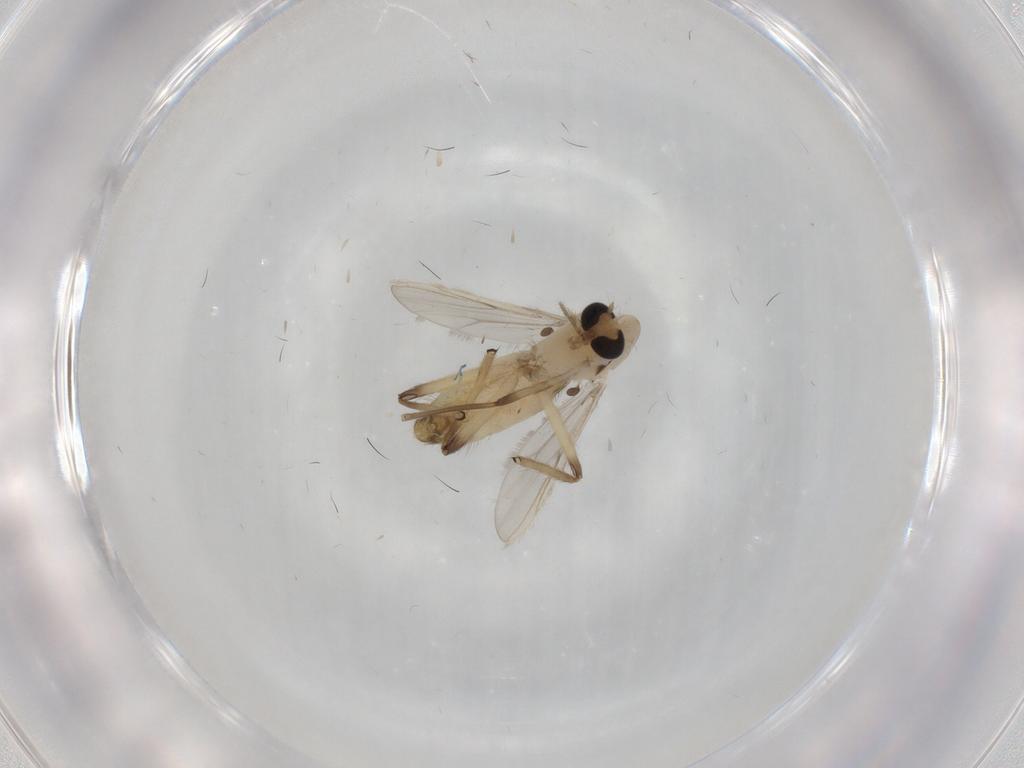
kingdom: Animalia
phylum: Arthropoda
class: Insecta
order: Diptera
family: Chironomidae
